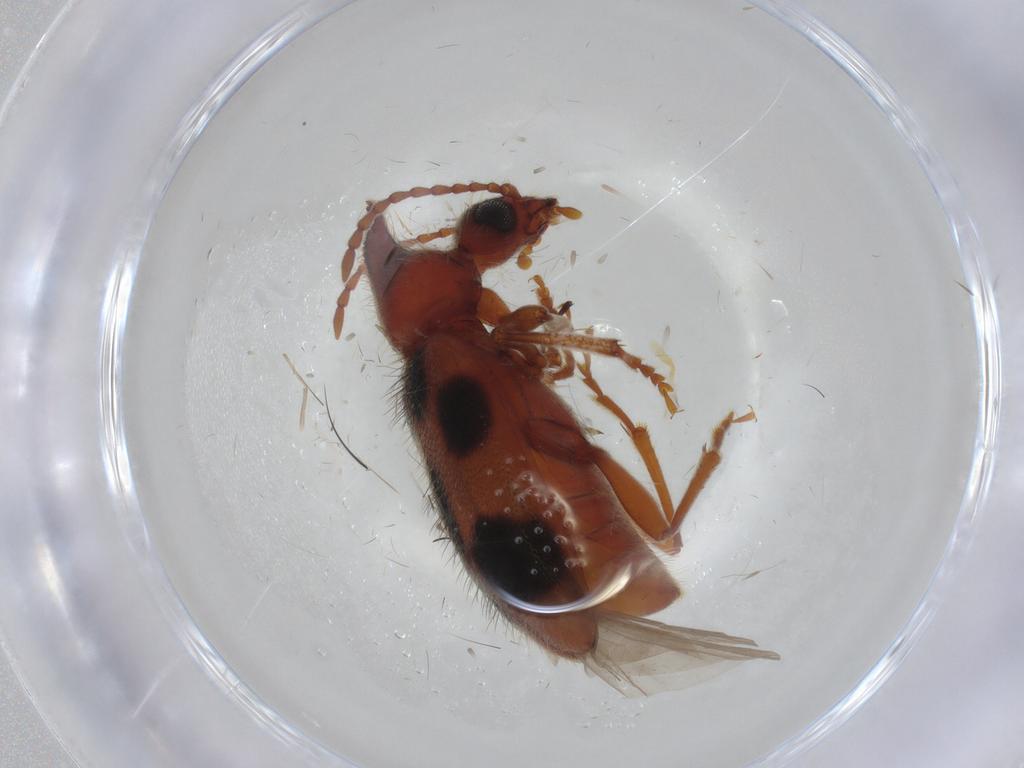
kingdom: Animalia
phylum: Arthropoda
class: Insecta
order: Coleoptera
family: Anthicidae
